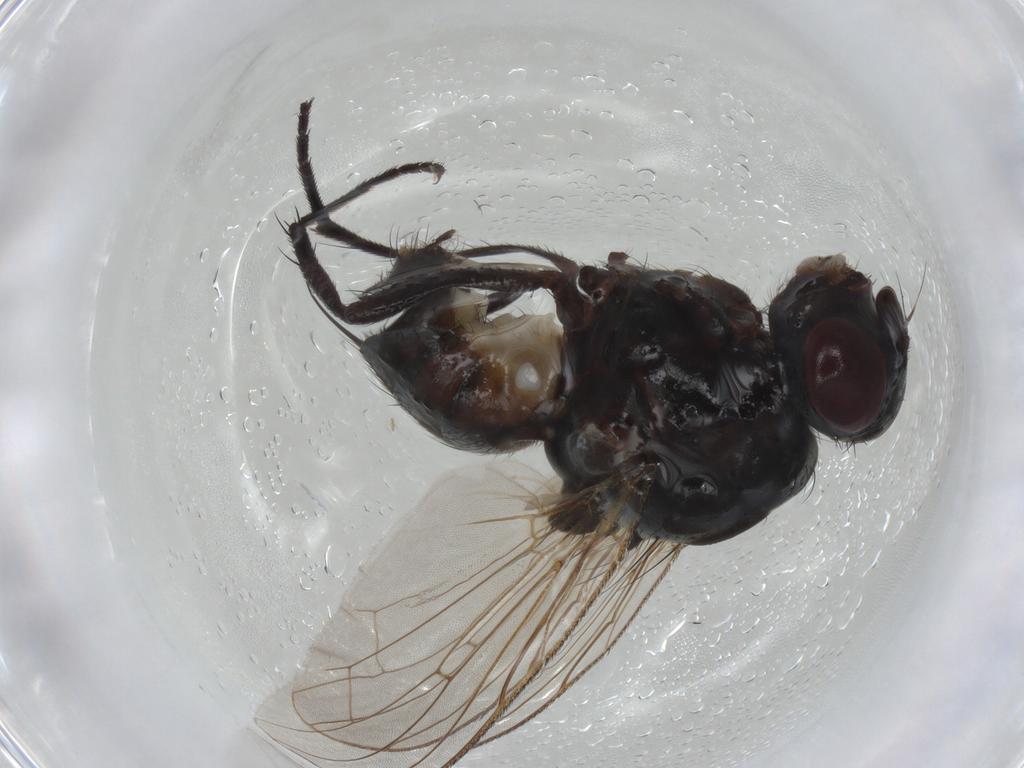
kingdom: Animalia
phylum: Arthropoda
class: Insecta
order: Diptera
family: Anthomyiidae
